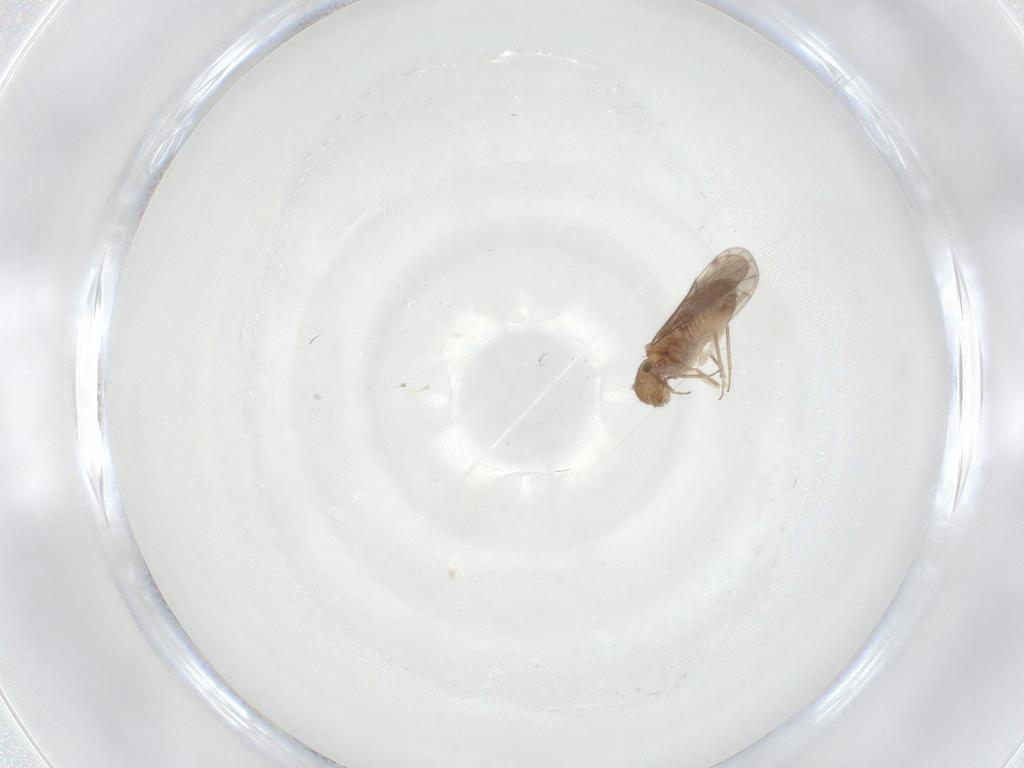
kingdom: Animalia
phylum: Arthropoda
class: Insecta
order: Psocodea
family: Ectopsocidae
